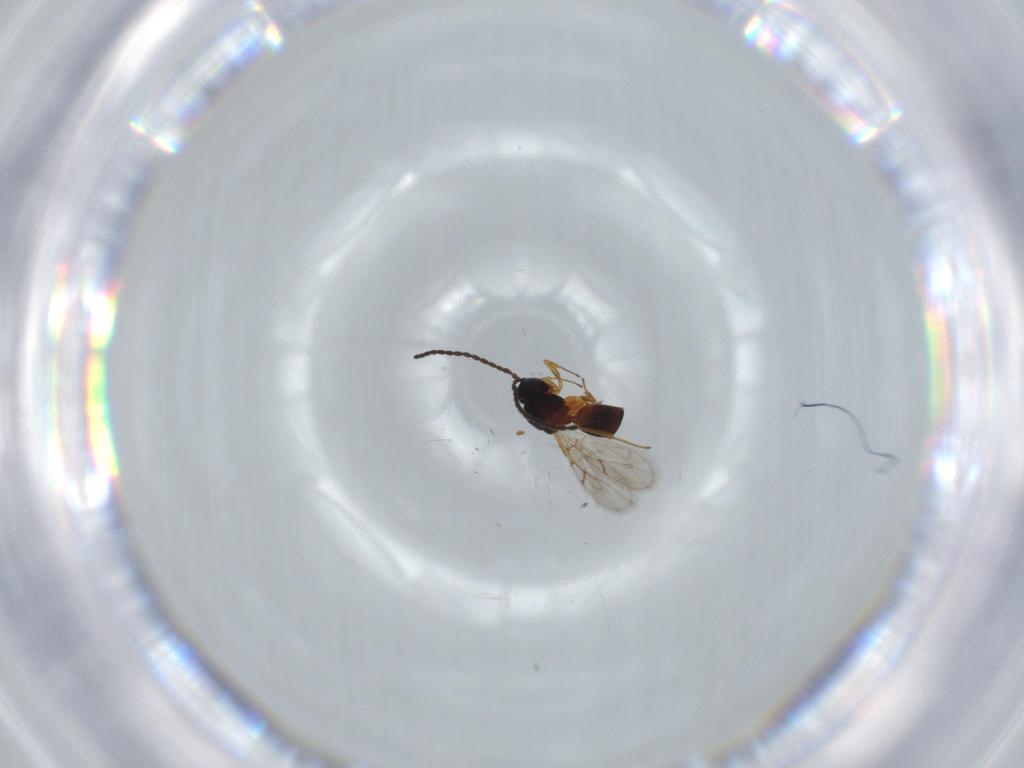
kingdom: Animalia
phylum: Arthropoda
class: Insecta
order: Hymenoptera
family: Figitidae
